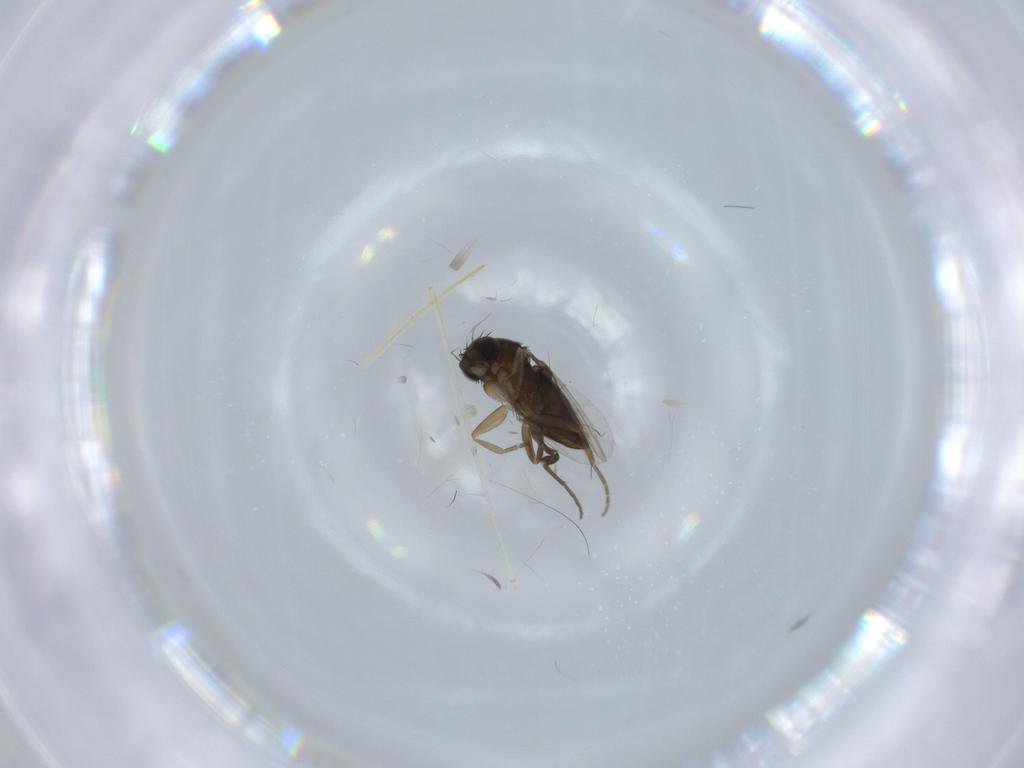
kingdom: Animalia
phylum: Arthropoda
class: Insecta
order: Diptera
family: Phoridae
